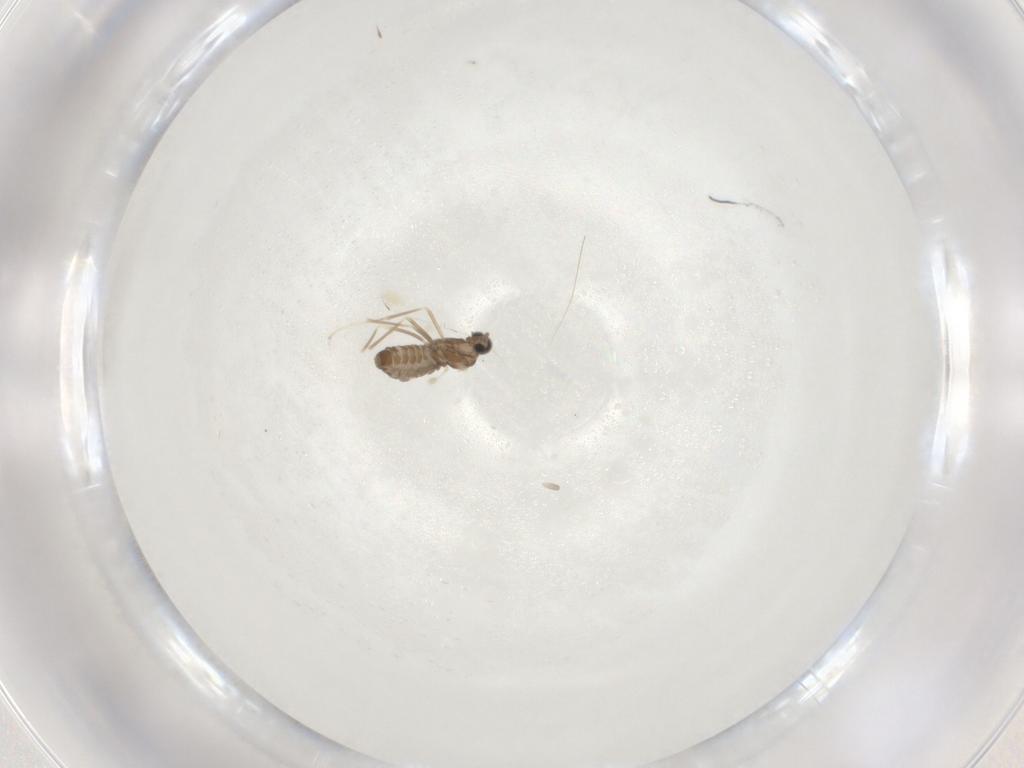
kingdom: Animalia
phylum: Arthropoda
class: Insecta
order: Diptera
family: Cecidomyiidae
